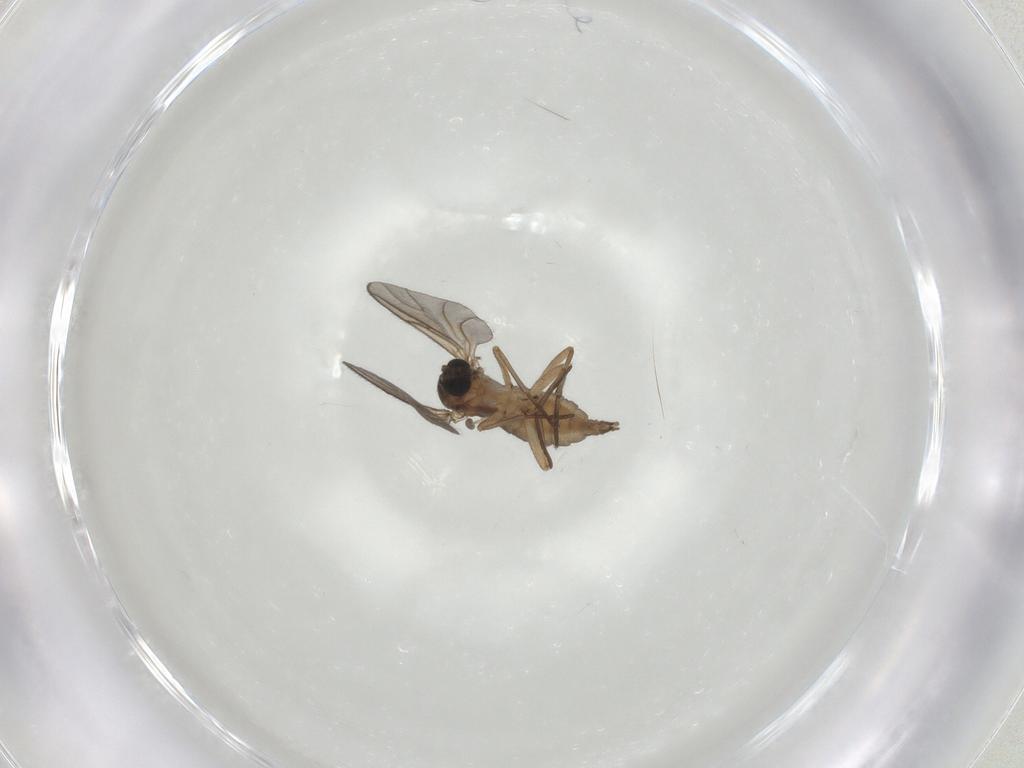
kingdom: Animalia
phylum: Arthropoda
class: Insecta
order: Diptera
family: Sciaridae
